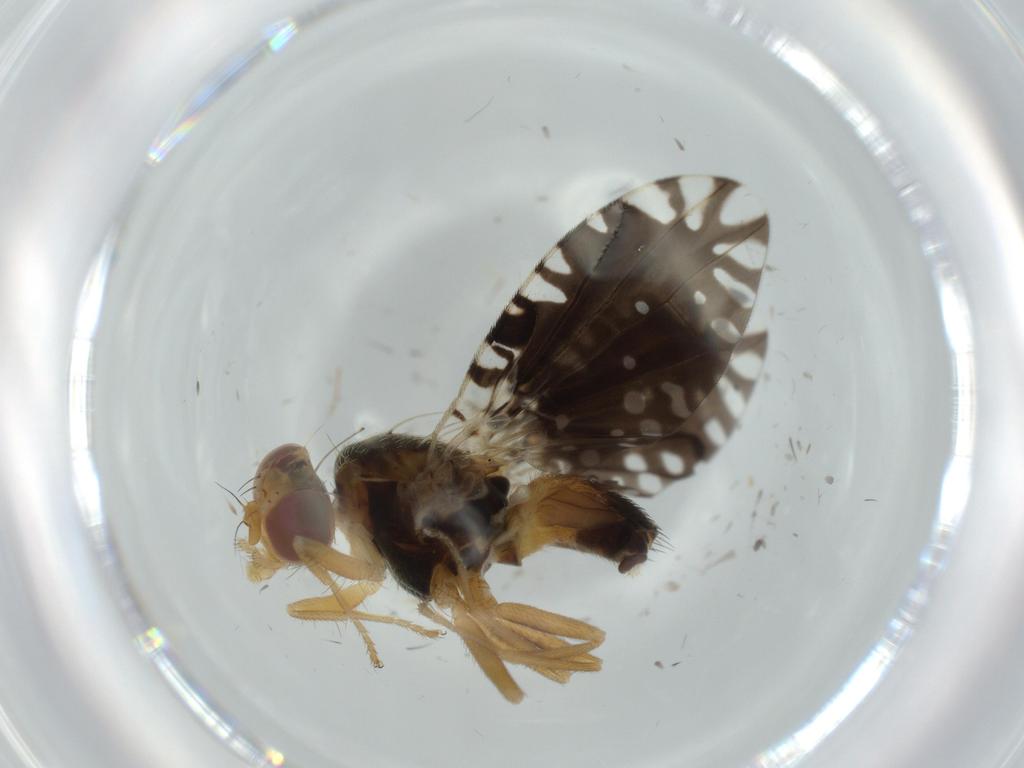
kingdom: Animalia
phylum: Arthropoda
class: Insecta
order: Diptera
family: Tephritidae
